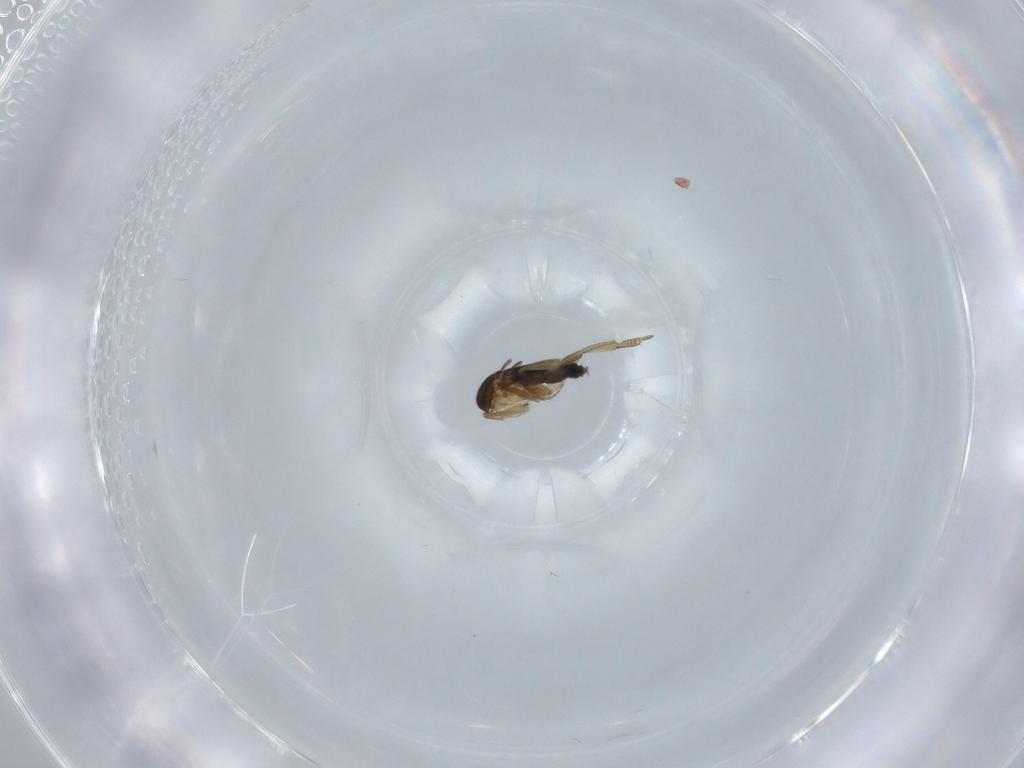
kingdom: Animalia
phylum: Arthropoda
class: Insecta
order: Diptera
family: Phoridae
